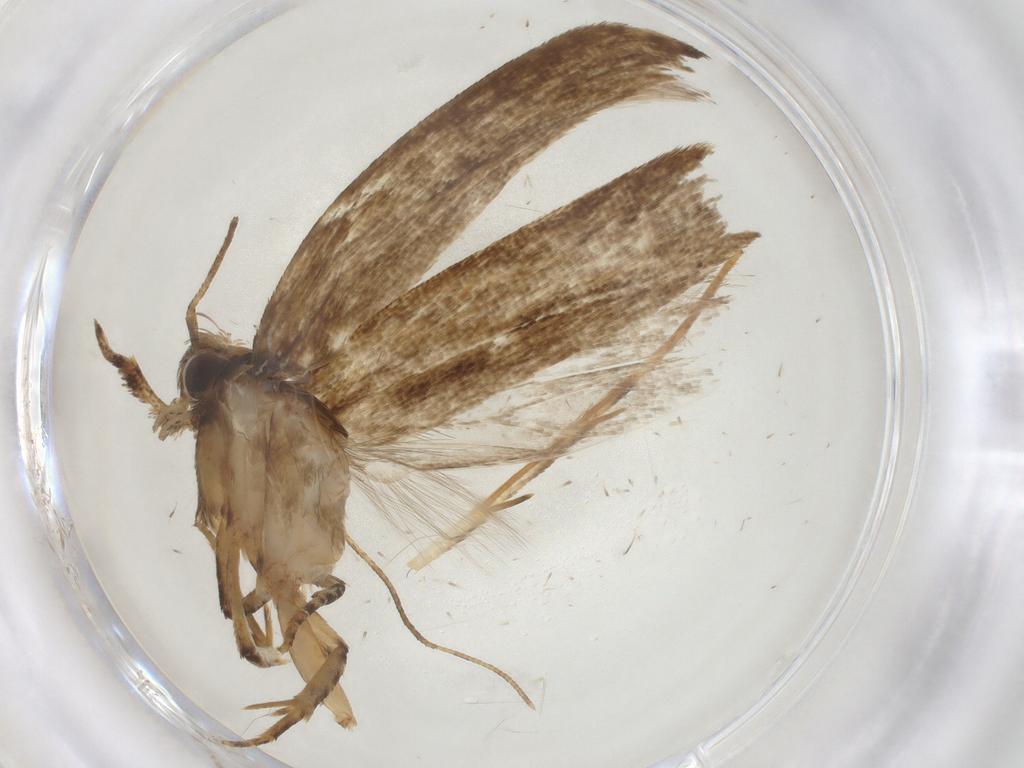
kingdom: Animalia
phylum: Arthropoda
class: Insecta
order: Lepidoptera
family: Gelechiidae
